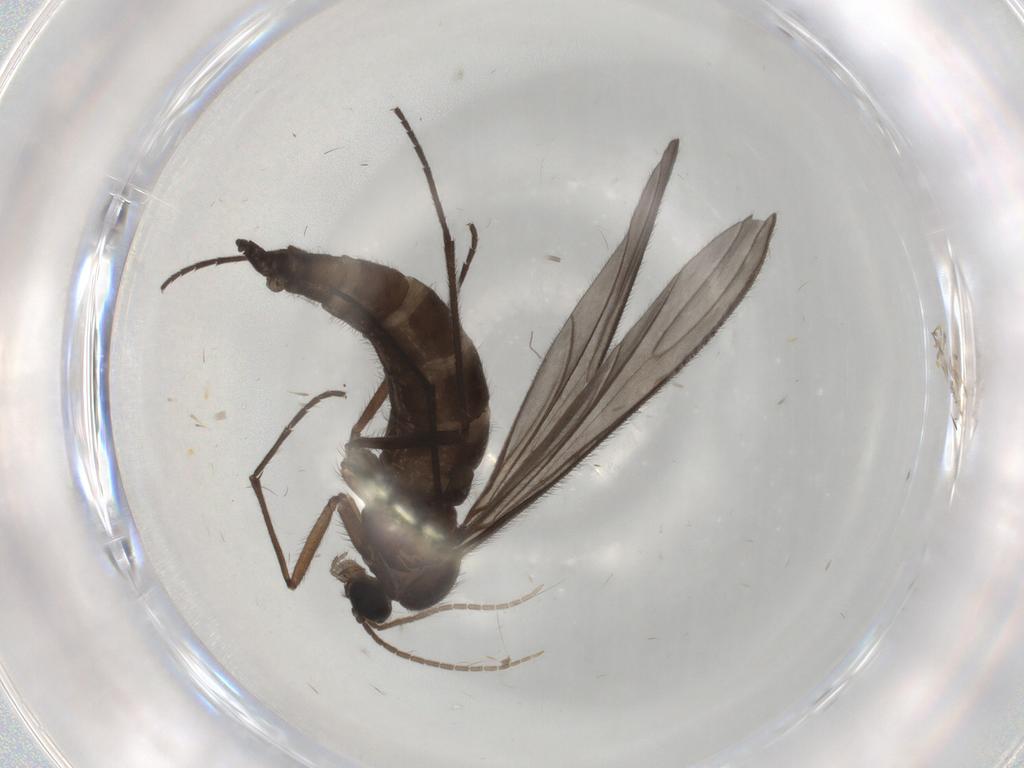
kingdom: Animalia
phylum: Arthropoda
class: Insecta
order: Diptera
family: Sciaridae
